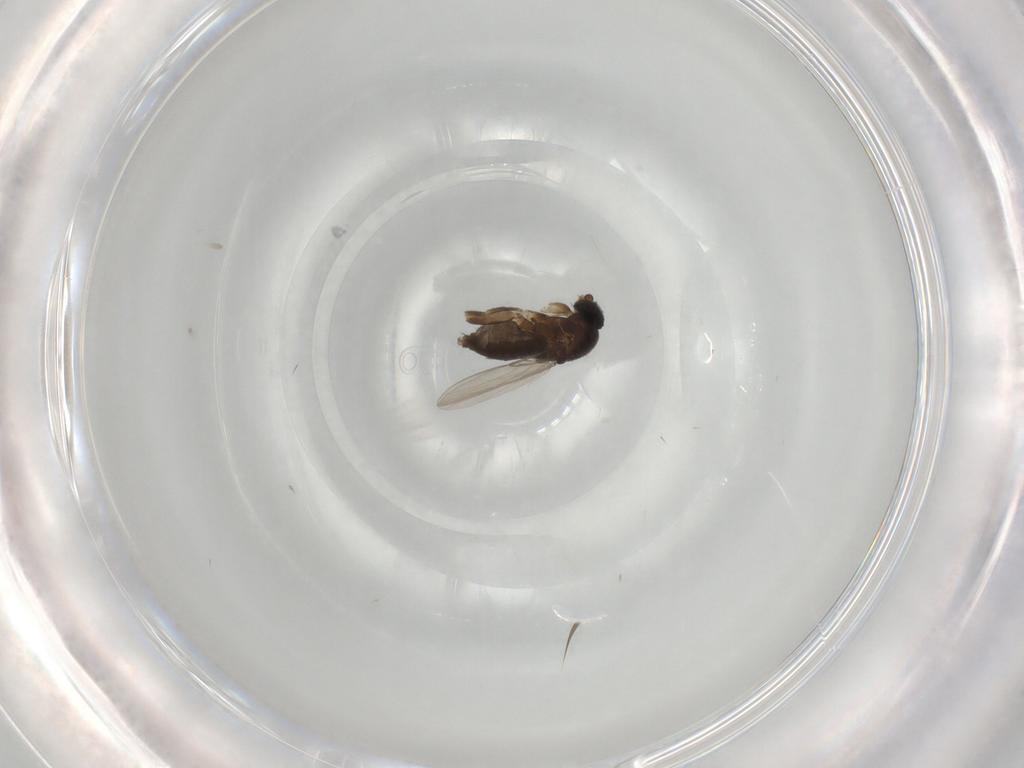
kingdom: Animalia
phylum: Arthropoda
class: Insecta
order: Diptera
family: Phoridae
